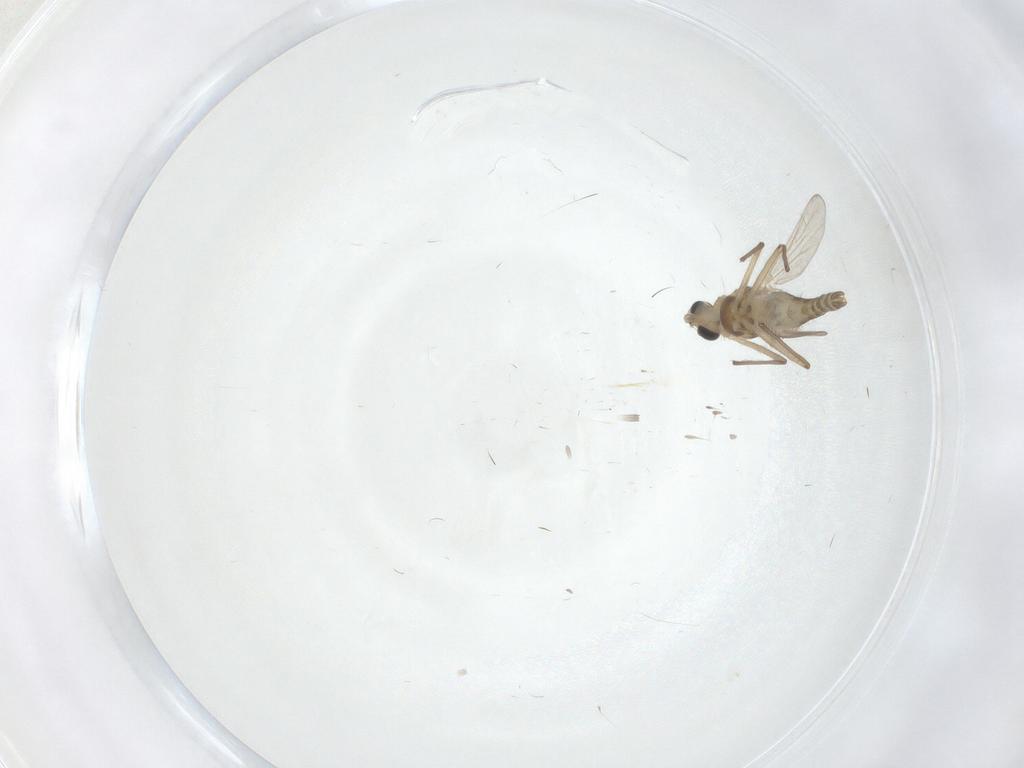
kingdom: Animalia
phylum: Arthropoda
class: Insecta
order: Diptera
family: Chironomidae
